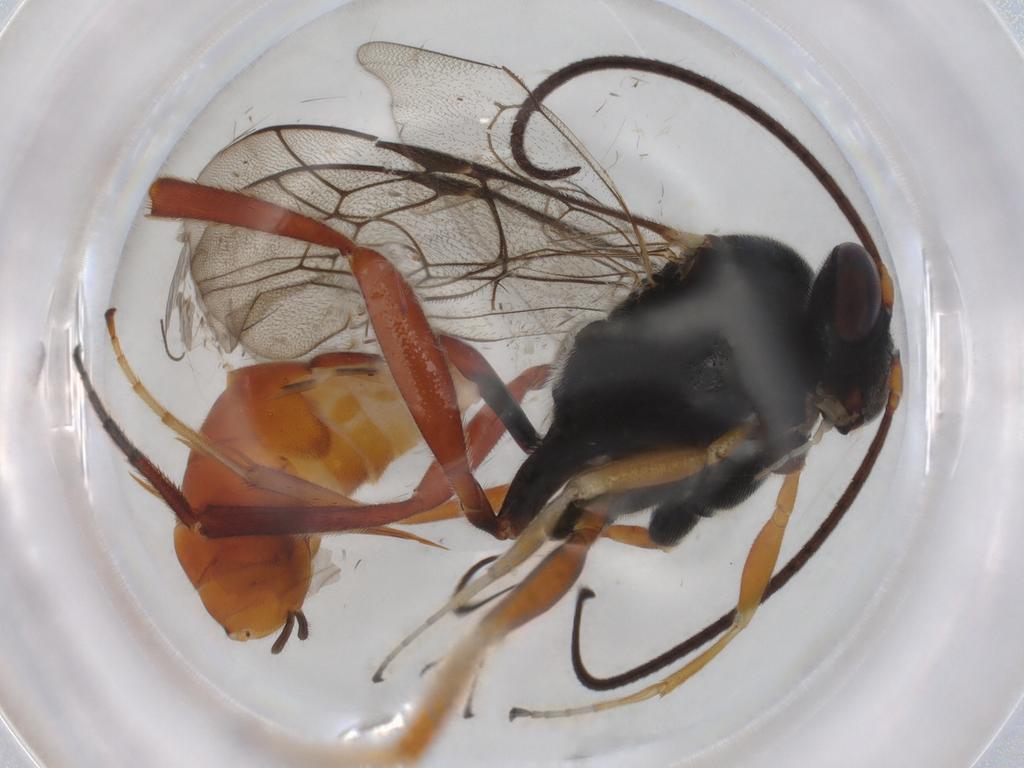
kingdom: Animalia
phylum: Arthropoda
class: Insecta
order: Hymenoptera
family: Ichneumonidae
